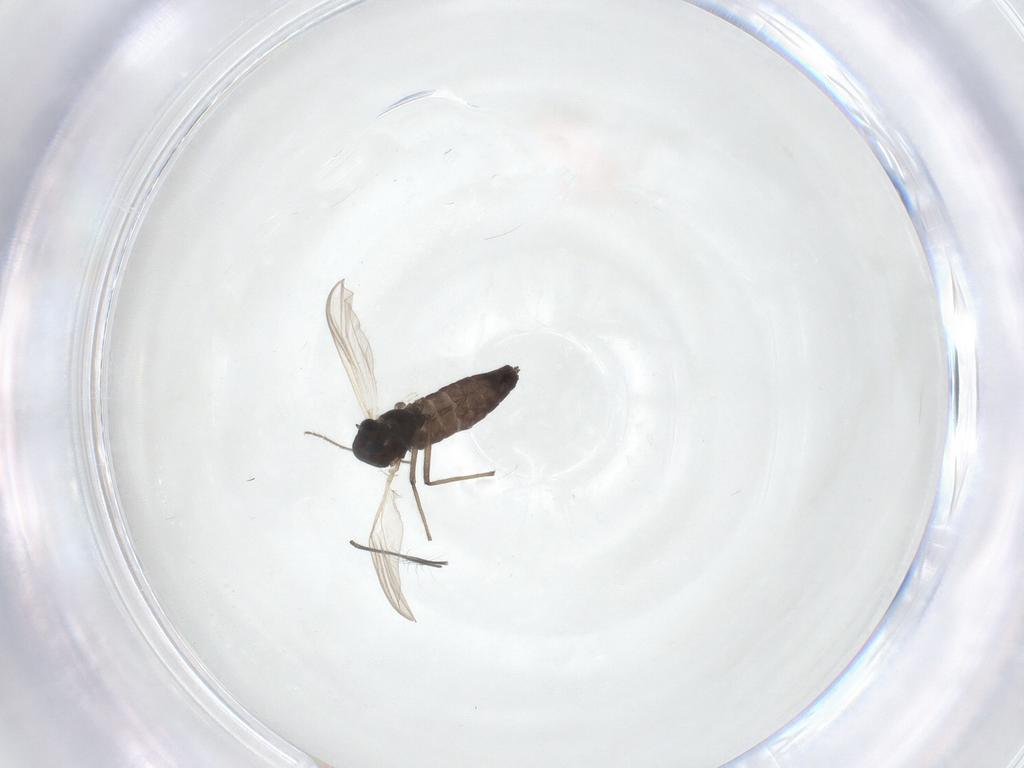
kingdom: Animalia
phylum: Arthropoda
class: Insecta
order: Diptera
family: Chironomidae
